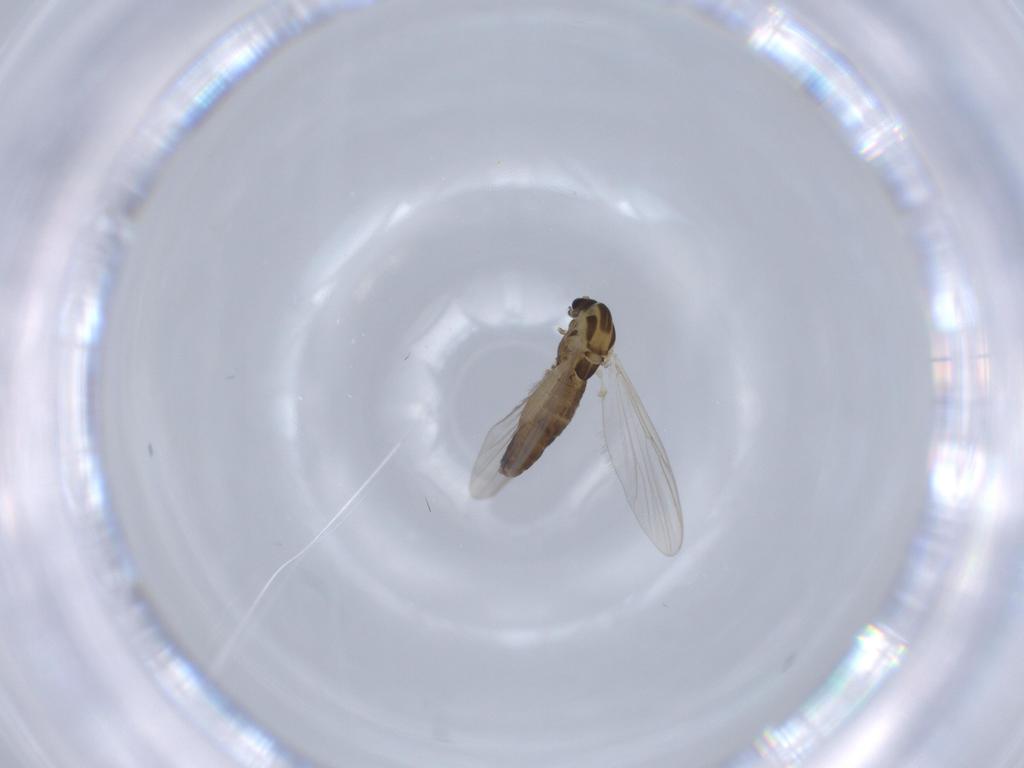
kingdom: Animalia
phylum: Arthropoda
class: Insecta
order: Diptera
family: Chironomidae
